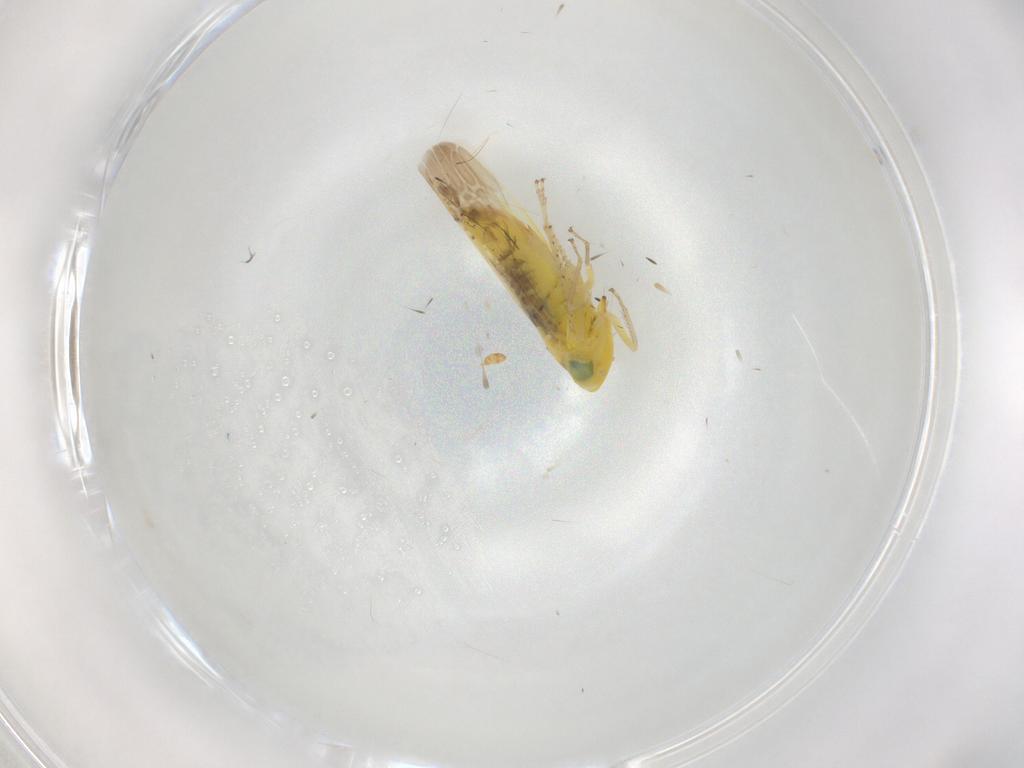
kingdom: Animalia
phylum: Arthropoda
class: Insecta
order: Hemiptera
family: Cicadellidae
